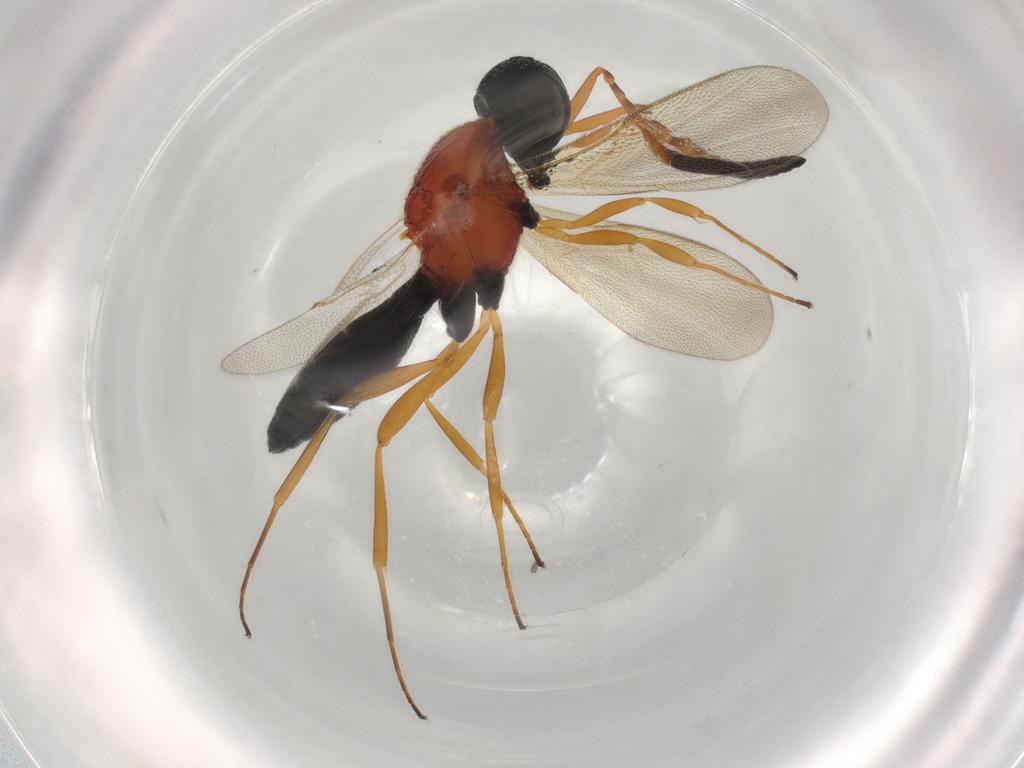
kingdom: Animalia
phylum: Arthropoda
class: Insecta
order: Hymenoptera
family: Scelionidae
